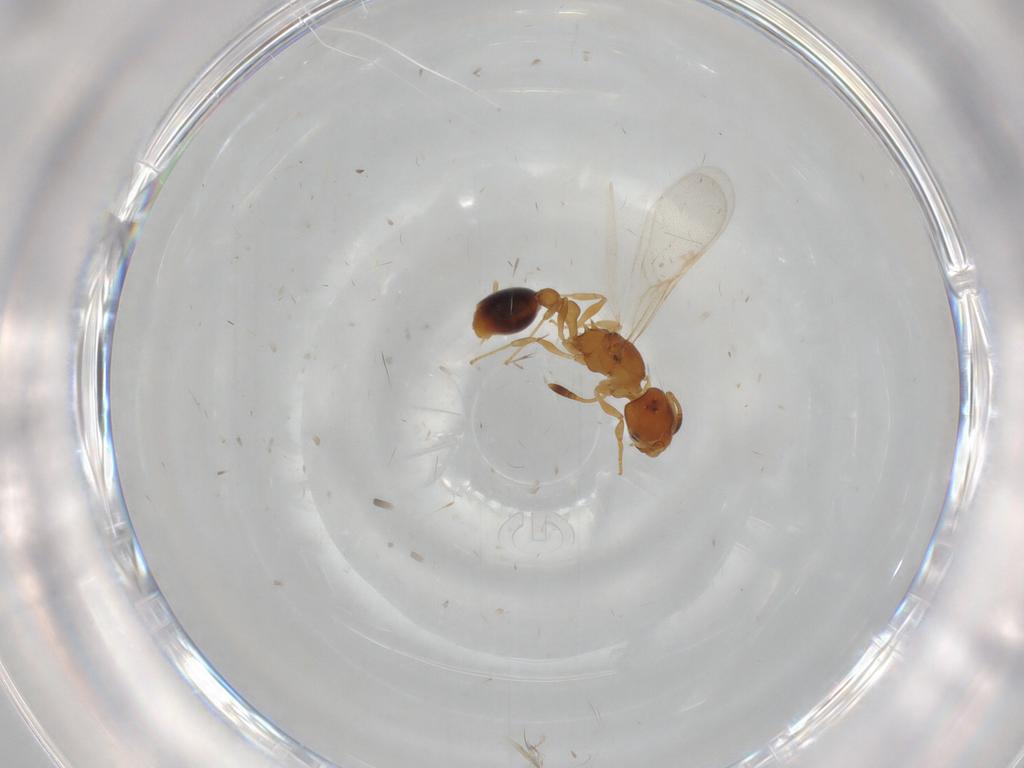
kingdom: Animalia
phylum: Arthropoda
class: Insecta
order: Hymenoptera
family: Formicidae
